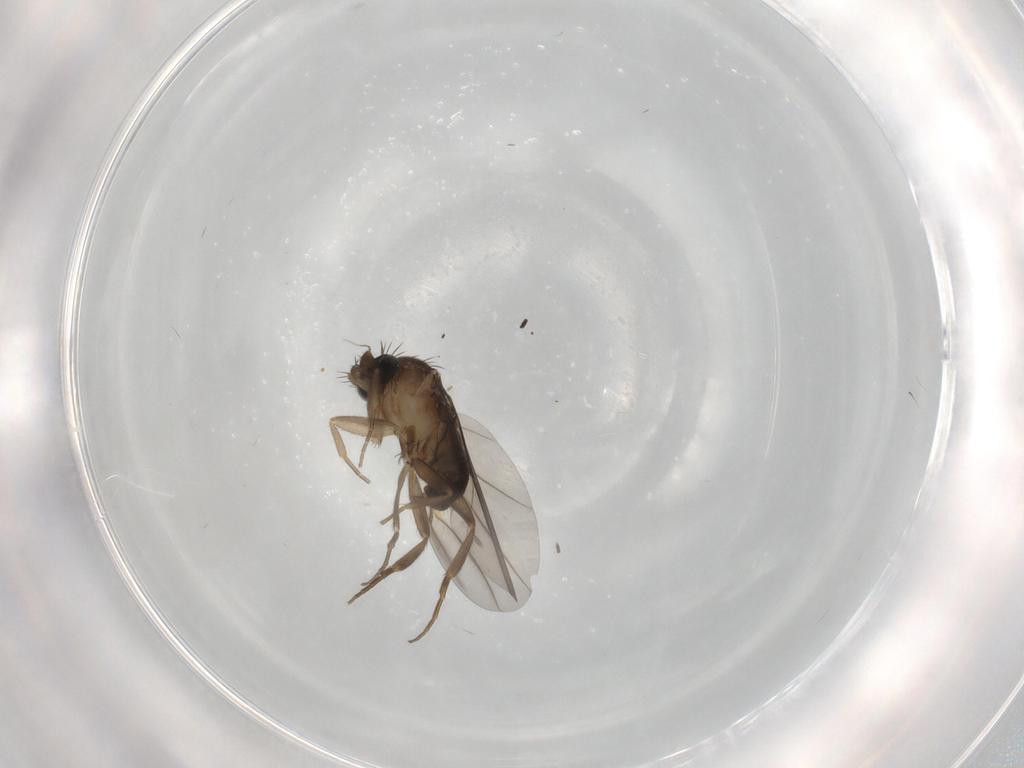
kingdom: Animalia
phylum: Arthropoda
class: Insecta
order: Diptera
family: Phoridae
